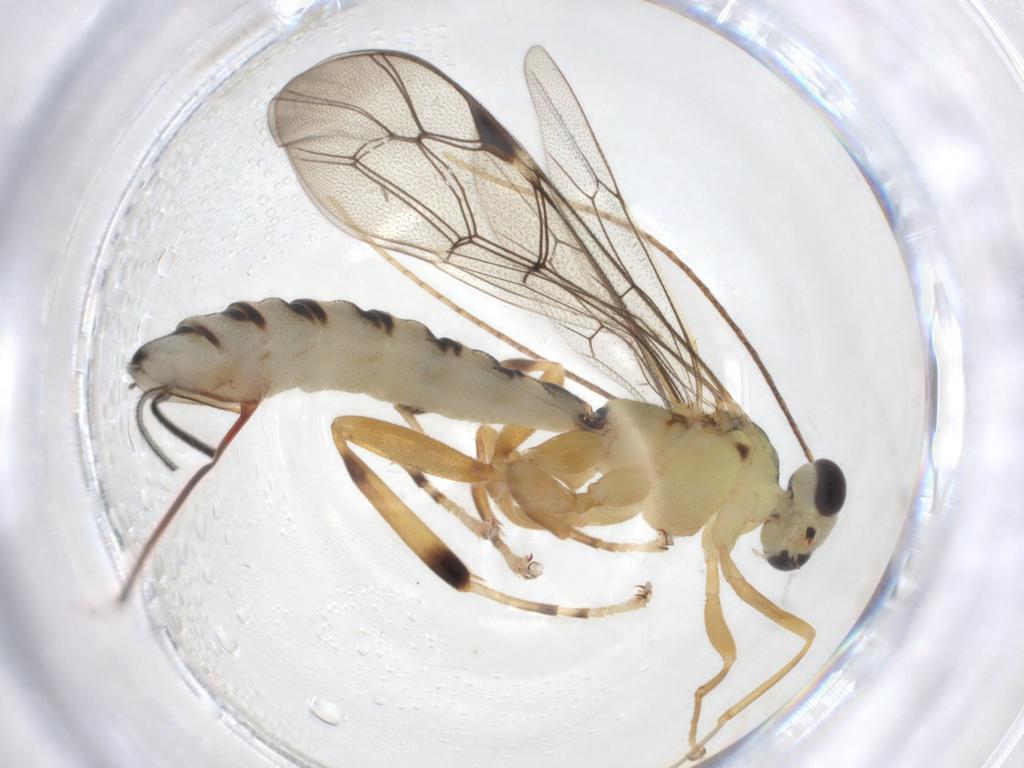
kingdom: Animalia
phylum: Arthropoda
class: Insecta
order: Hymenoptera
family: Ichneumonidae
